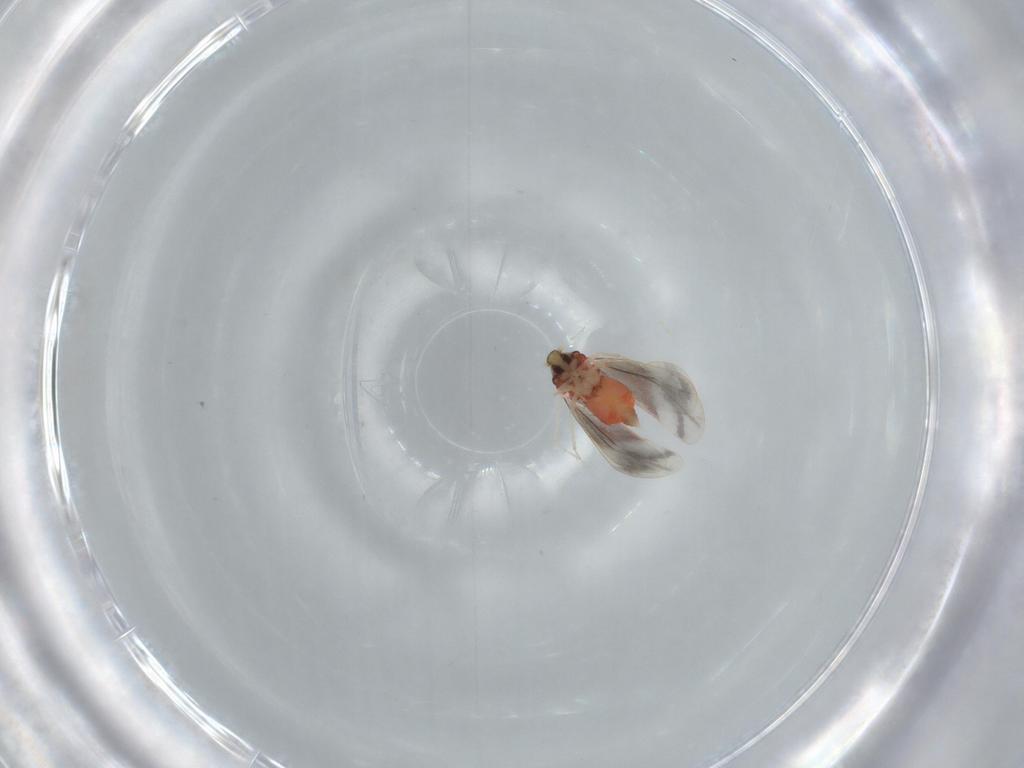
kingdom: Animalia
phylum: Arthropoda
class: Insecta
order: Hemiptera
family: Aleyrodidae
